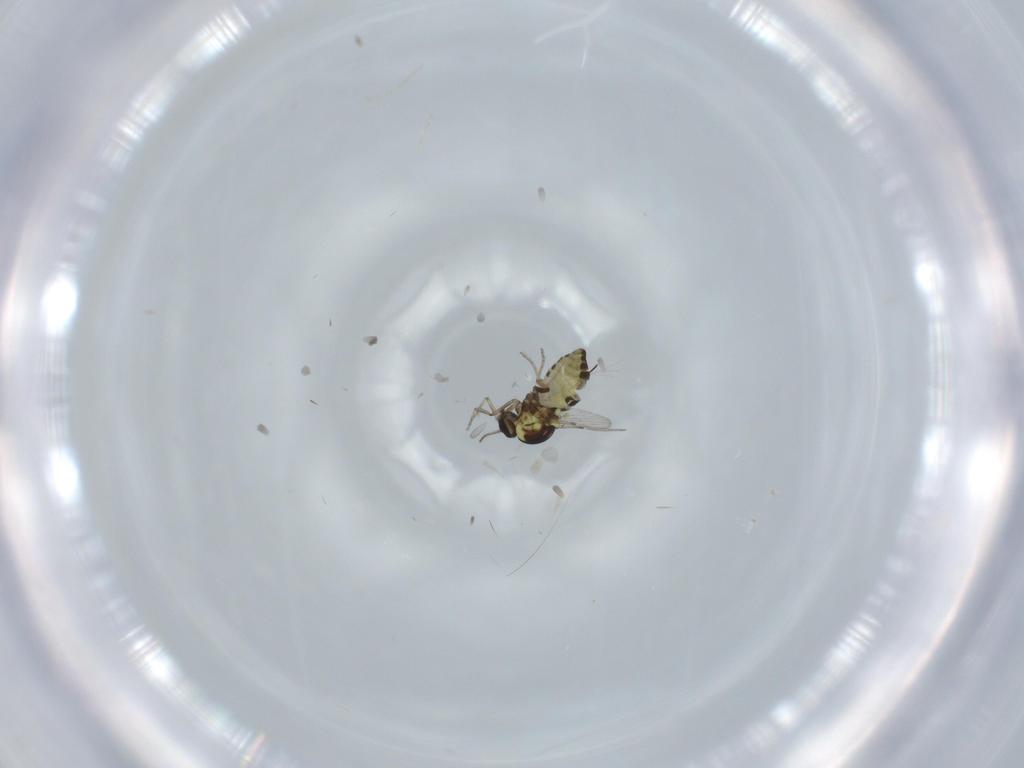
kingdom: Animalia
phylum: Arthropoda
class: Insecta
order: Diptera
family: Ceratopogonidae
